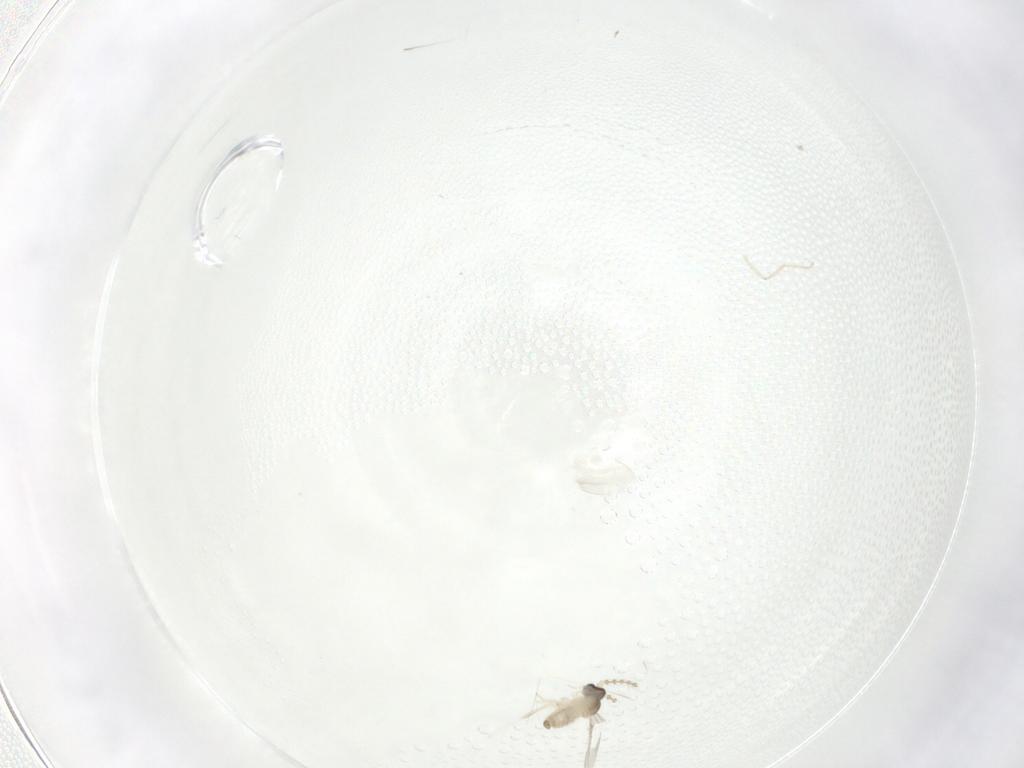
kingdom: Animalia
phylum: Arthropoda
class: Insecta
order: Diptera
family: Cecidomyiidae
